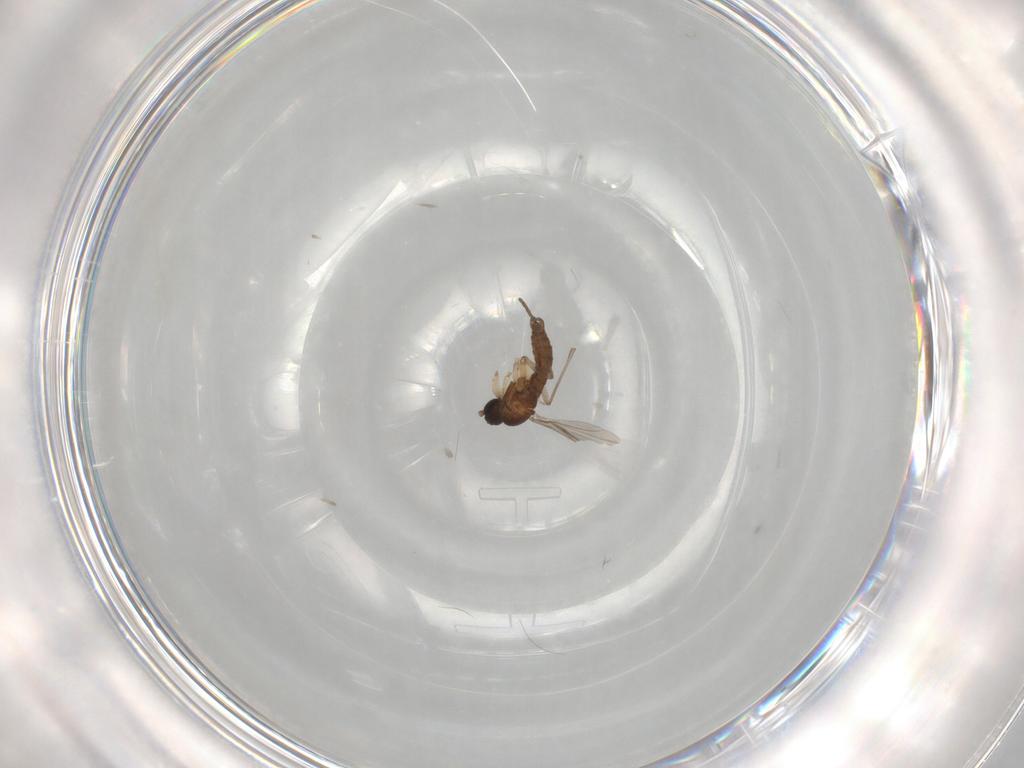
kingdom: Animalia
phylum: Arthropoda
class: Insecta
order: Diptera
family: Sciaridae
